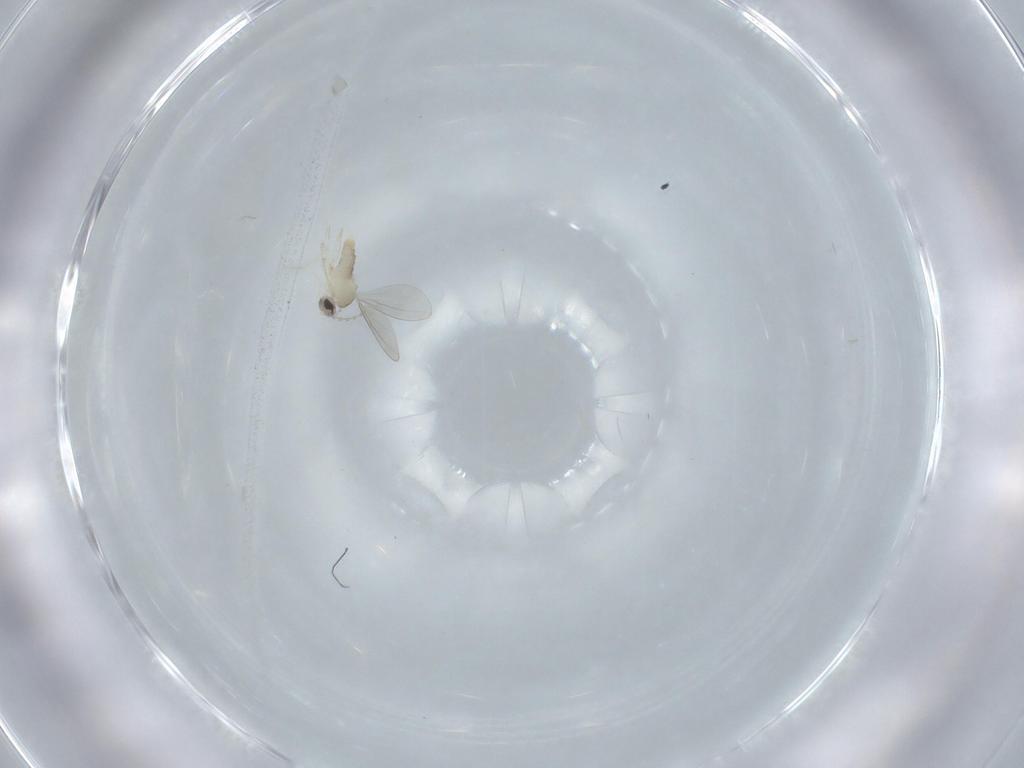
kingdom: Animalia
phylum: Arthropoda
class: Insecta
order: Diptera
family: Cecidomyiidae
